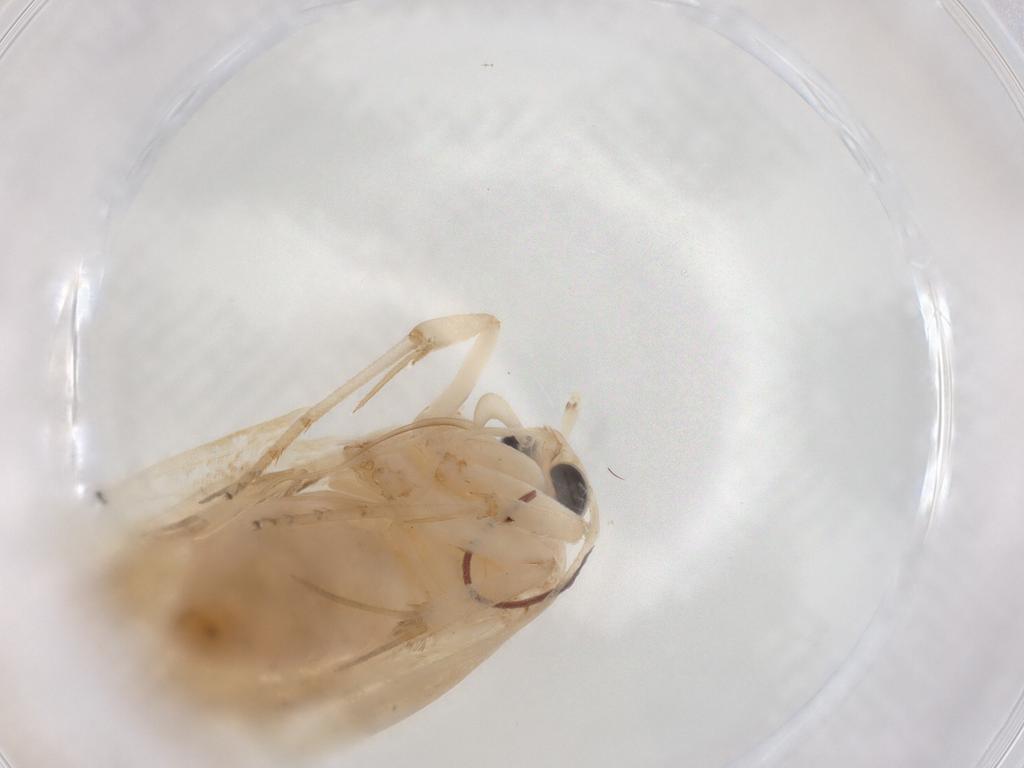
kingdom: Animalia
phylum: Arthropoda
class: Insecta
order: Lepidoptera
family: Lecithoceridae
